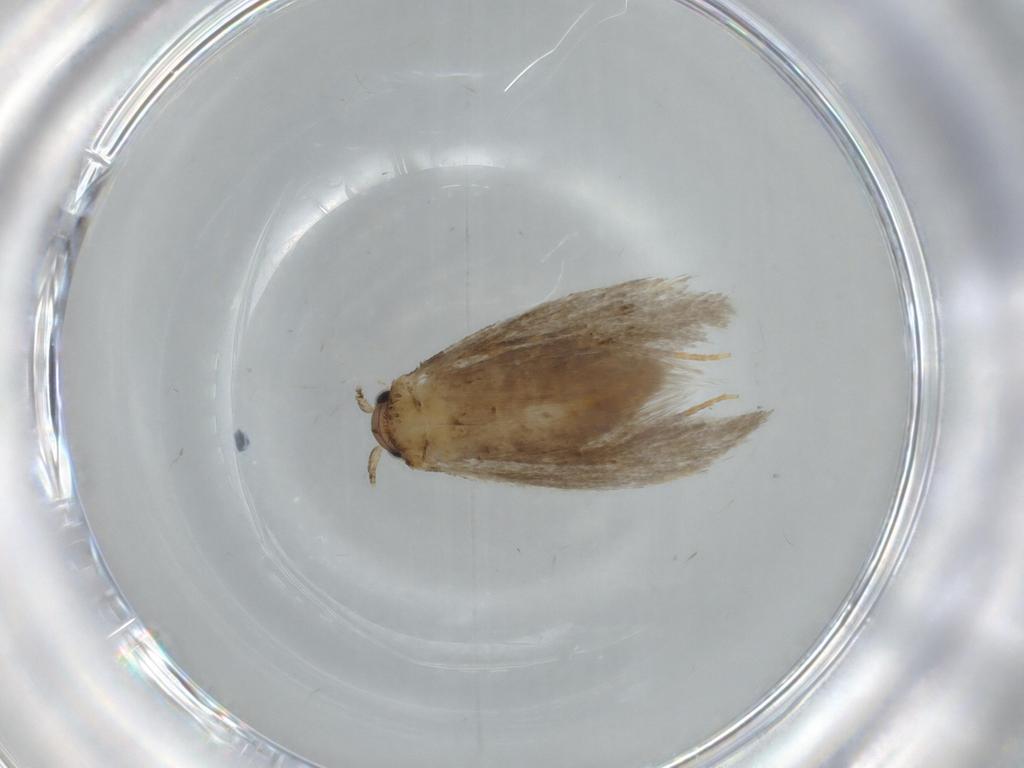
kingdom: Animalia
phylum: Arthropoda
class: Insecta
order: Lepidoptera
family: Tineidae
